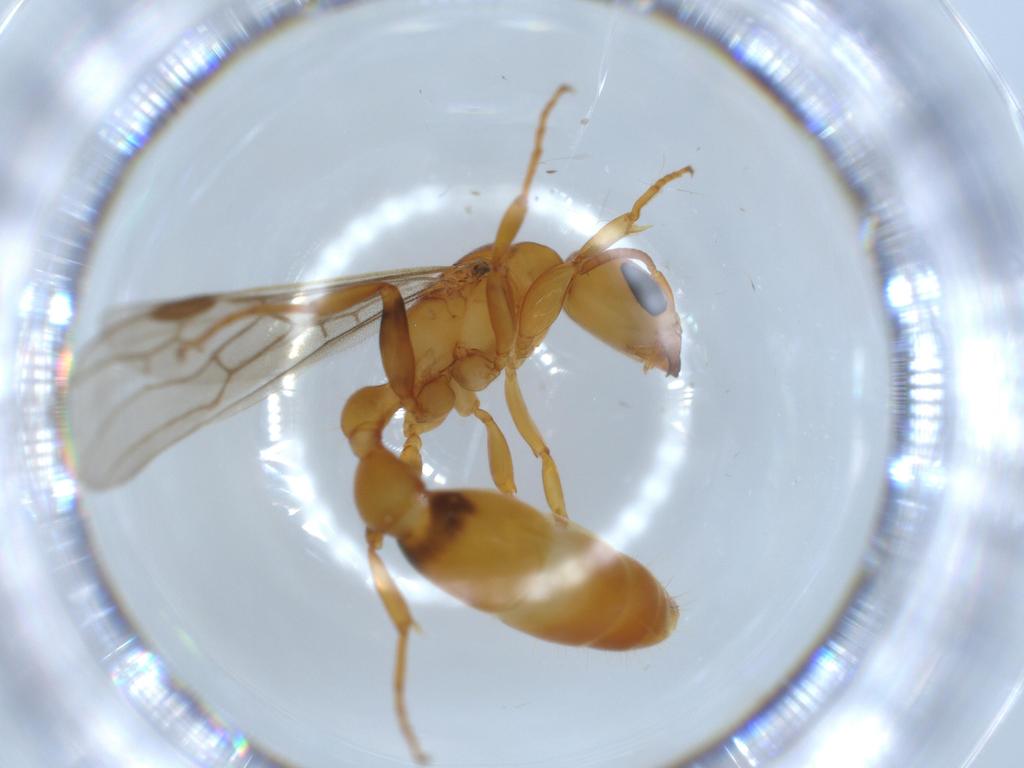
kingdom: Animalia
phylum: Arthropoda
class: Insecta
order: Hymenoptera
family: Formicidae
